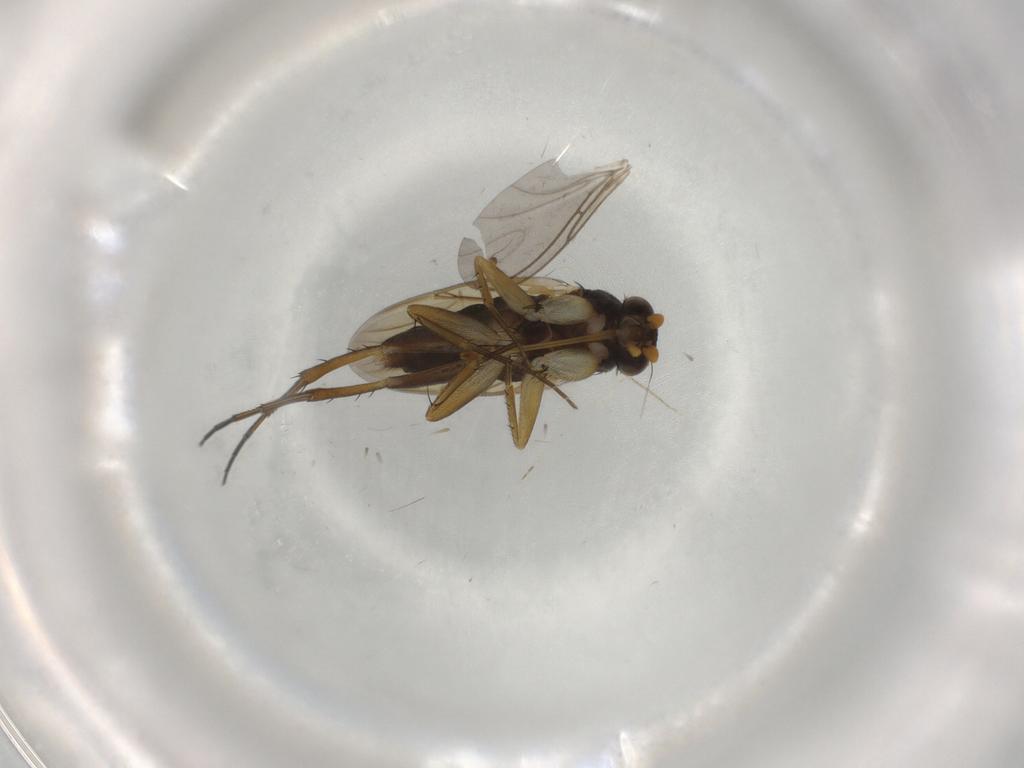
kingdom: Animalia
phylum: Arthropoda
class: Insecta
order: Diptera
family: Phoridae
